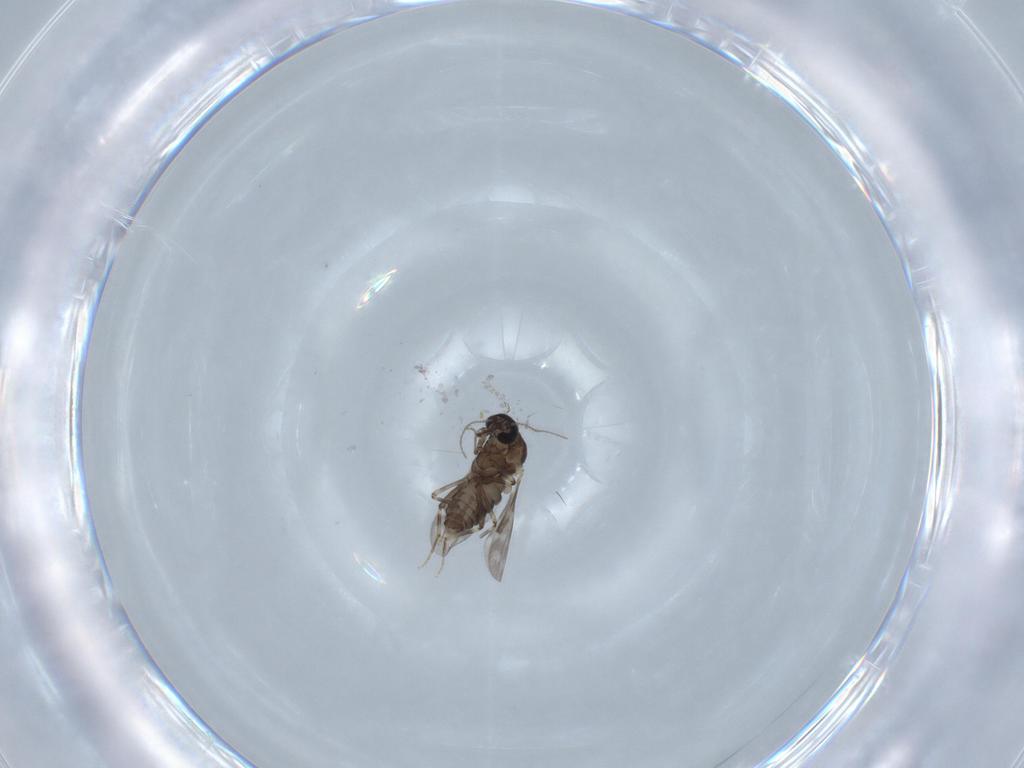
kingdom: Animalia
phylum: Arthropoda
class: Insecta
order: Diptera
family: Ceratopogonidae
